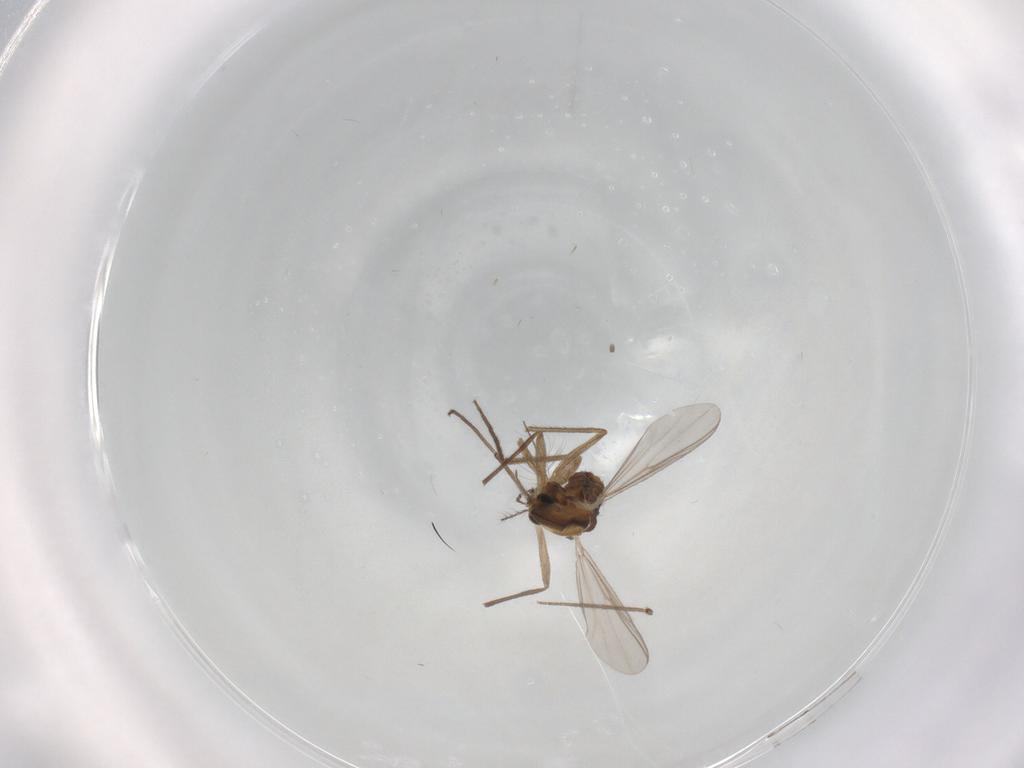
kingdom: Animalia
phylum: Arthropoda
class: Insecta
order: Diptera
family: Chironomidae
